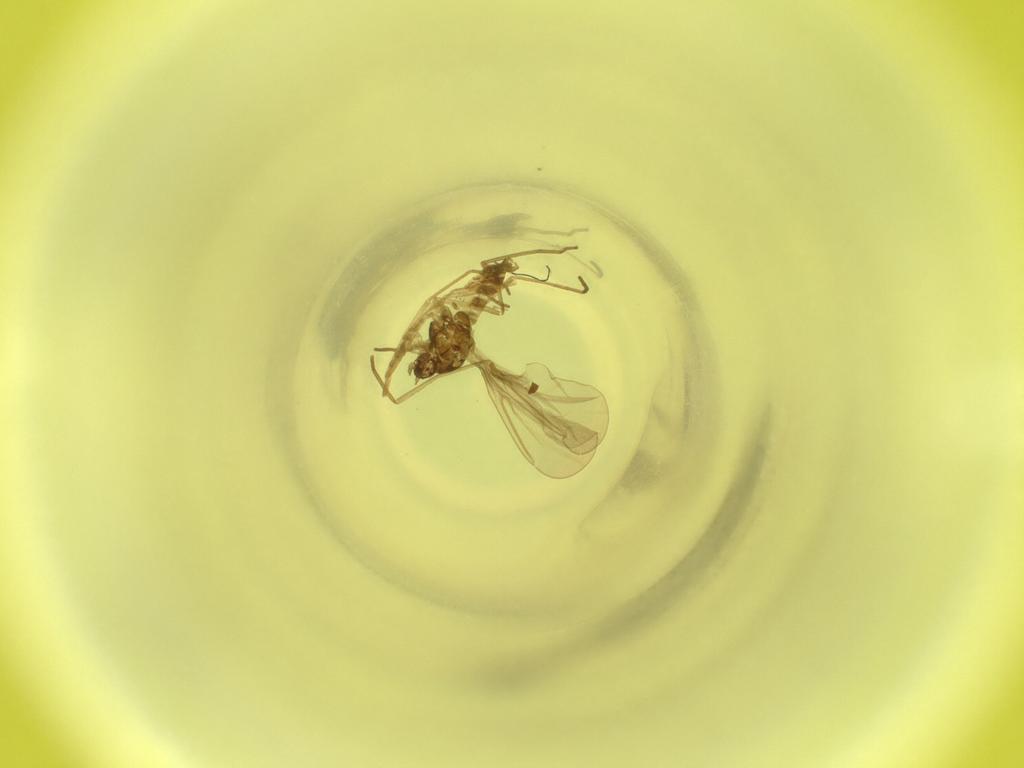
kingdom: Animalia
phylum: Arthropoda
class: Insecta
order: Diptera
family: Cecidomyiidae
